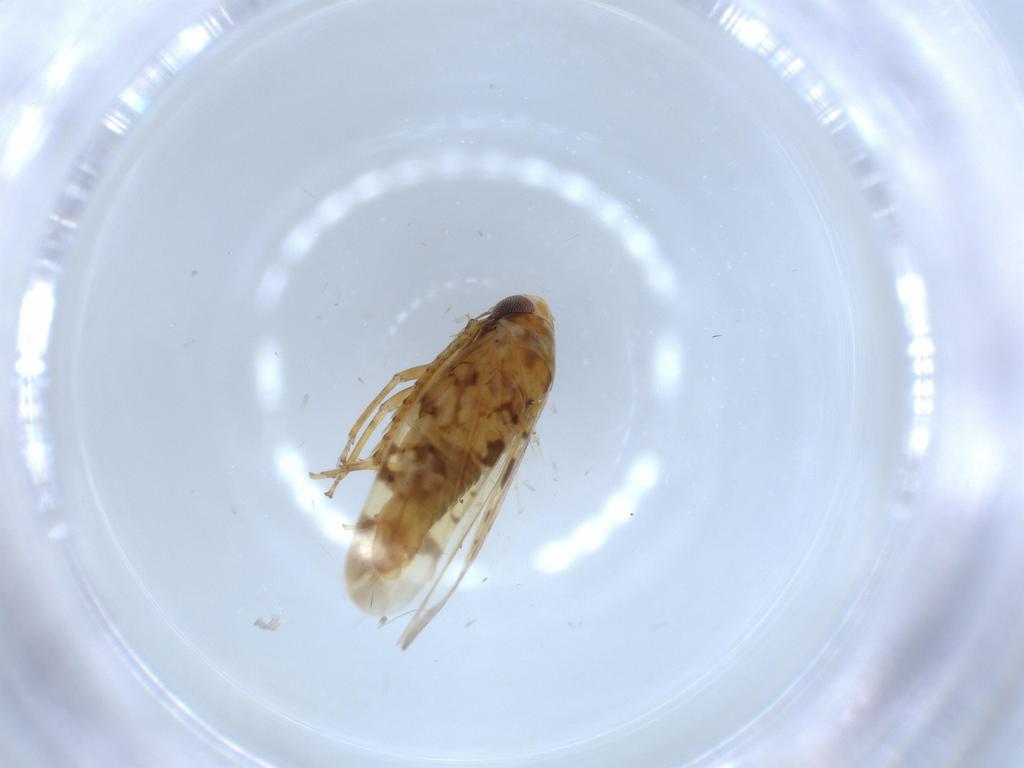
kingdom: Animalia
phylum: Arthropoda
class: Insecta
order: Hemiptera
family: Cicadellidae
